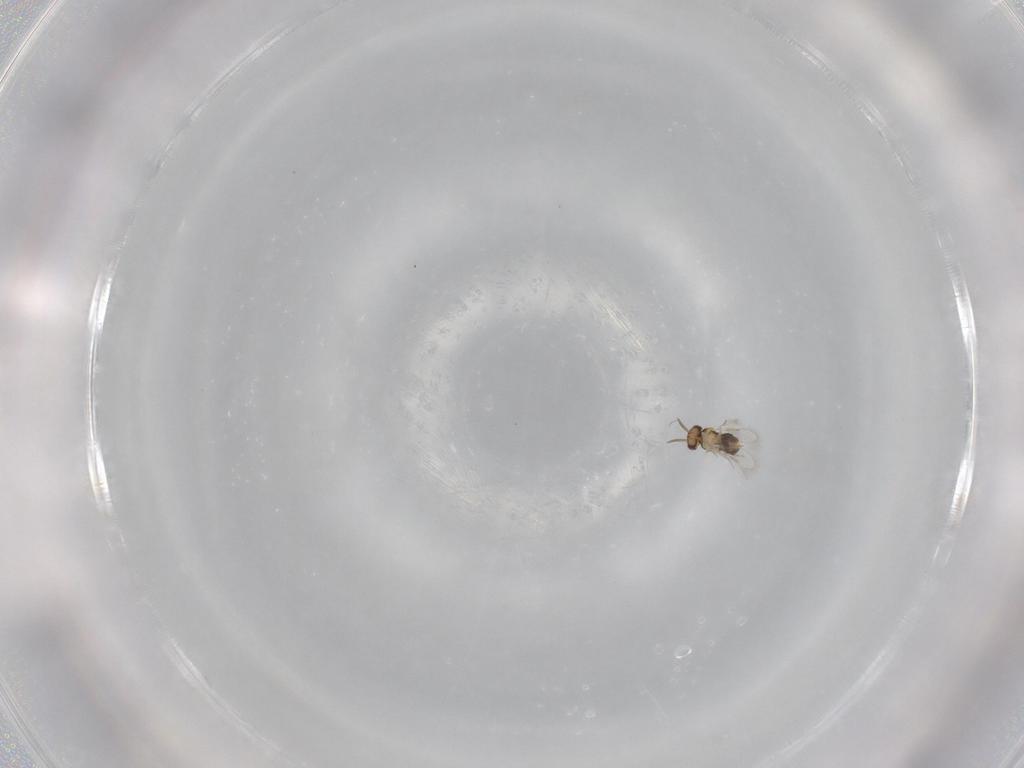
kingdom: Animalia
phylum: Arthropoda
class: Insecta
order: Hymenoptera
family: Aphelinidae
